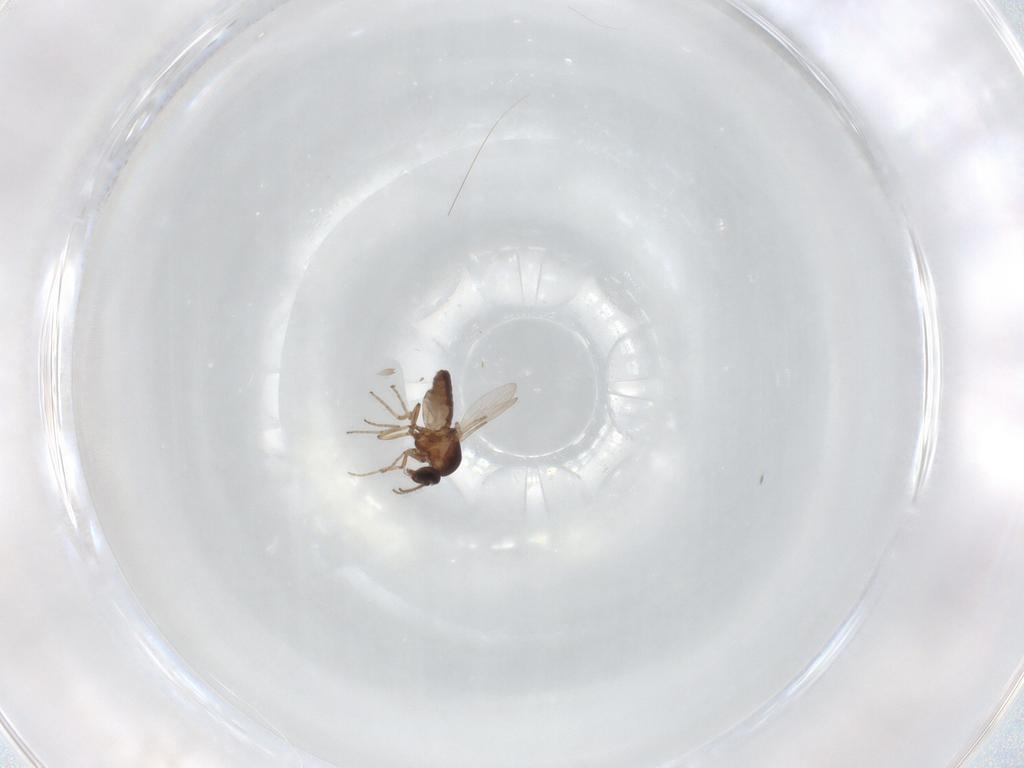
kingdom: Animalia
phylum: Arthropoda
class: Insecta
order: Diptera
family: Ceratopogonidae
